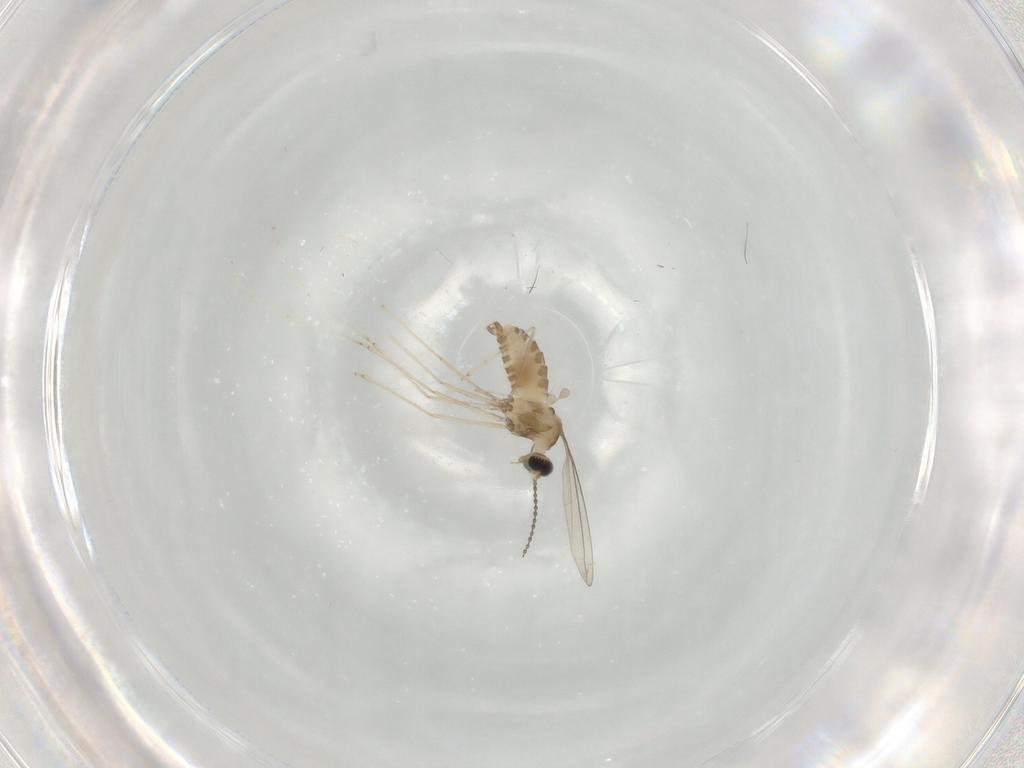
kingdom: Animalia
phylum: Arthropoda
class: Insecta
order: Diptera
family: Cecidomyiidae
